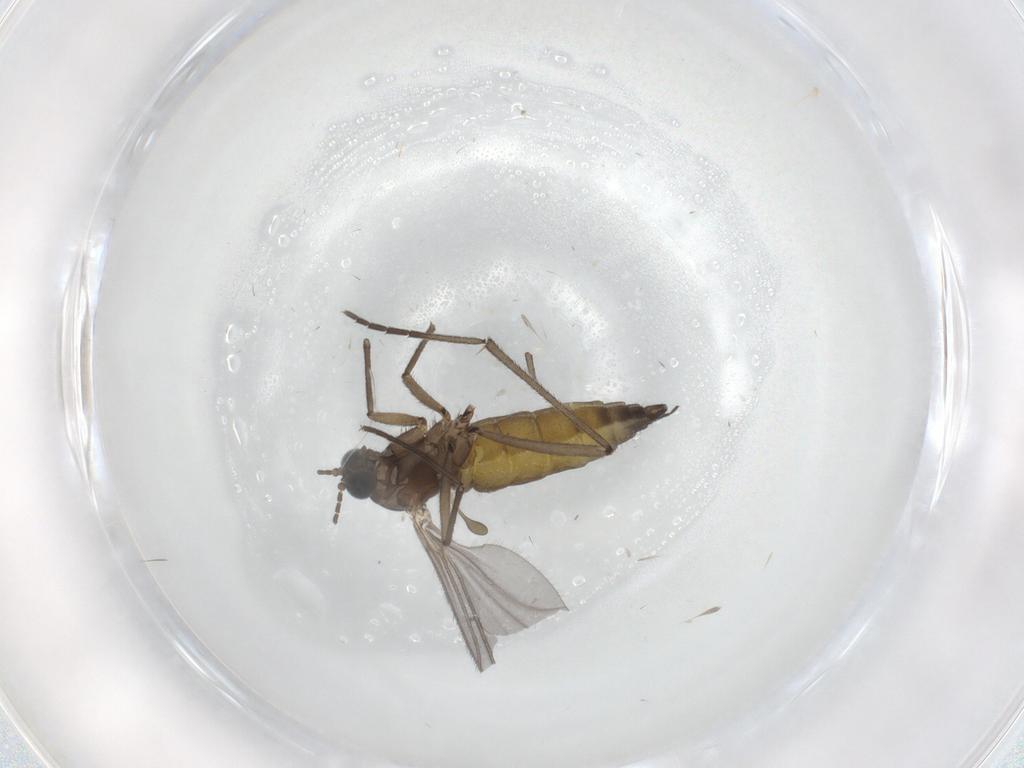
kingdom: Animalia
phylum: Arthropoda
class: Insecta
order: Diptera
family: Sciaridae
